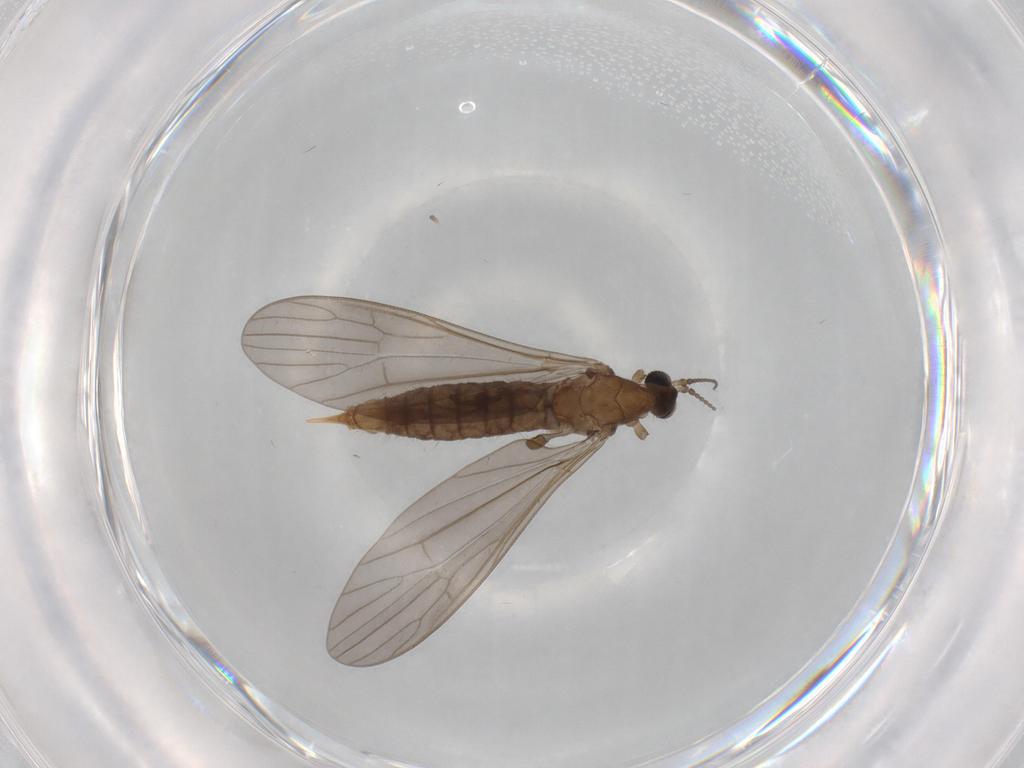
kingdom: Animalia
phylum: Arthropoda
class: Insecta
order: Diptera
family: Limoniidae
